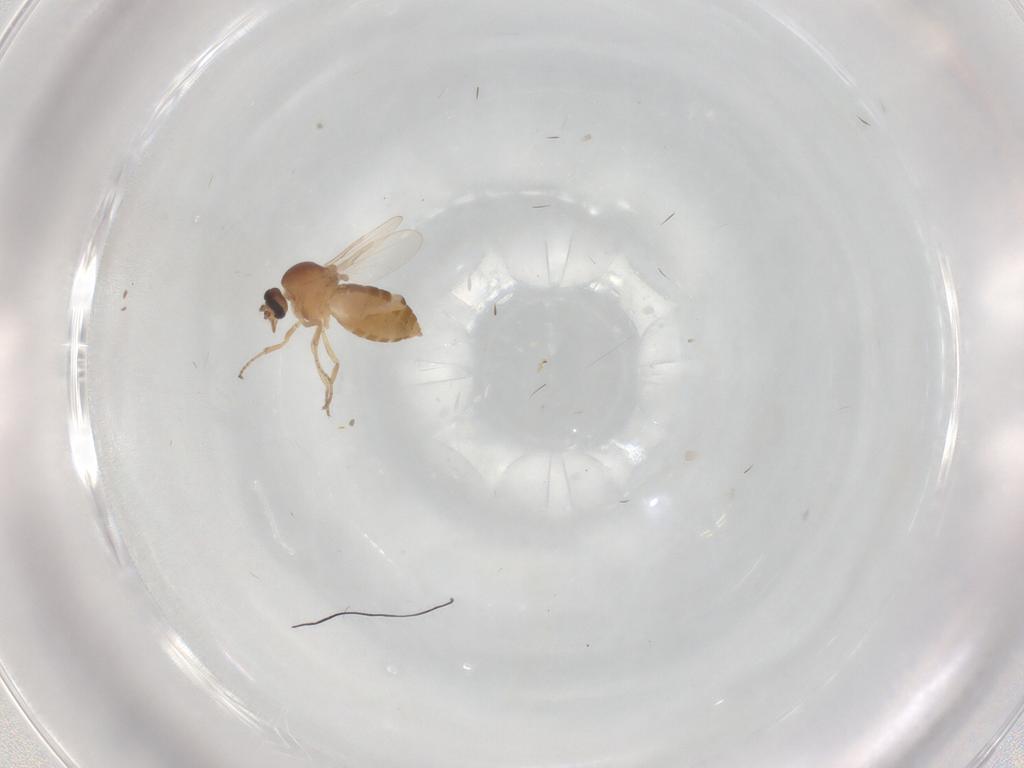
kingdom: Animalia
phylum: Arthropoda
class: Insecta
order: Diptera
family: Ceratopogonidae
